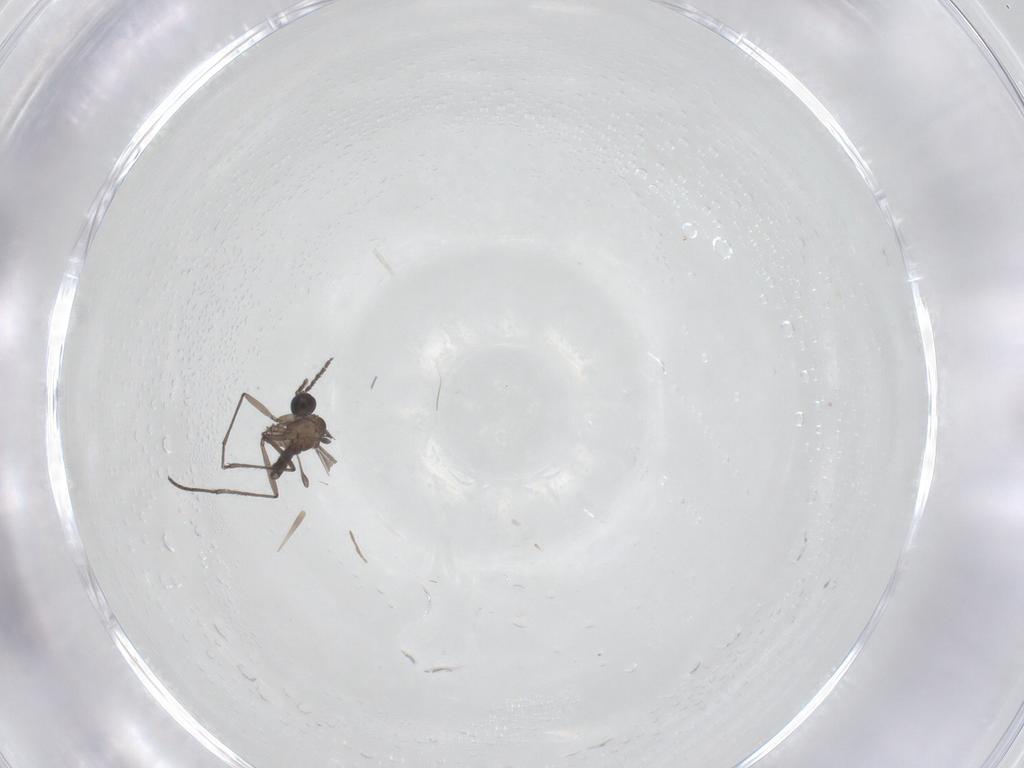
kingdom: Animalia
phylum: Arthropoda
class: Insecta
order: Diptera
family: Sciaridae
